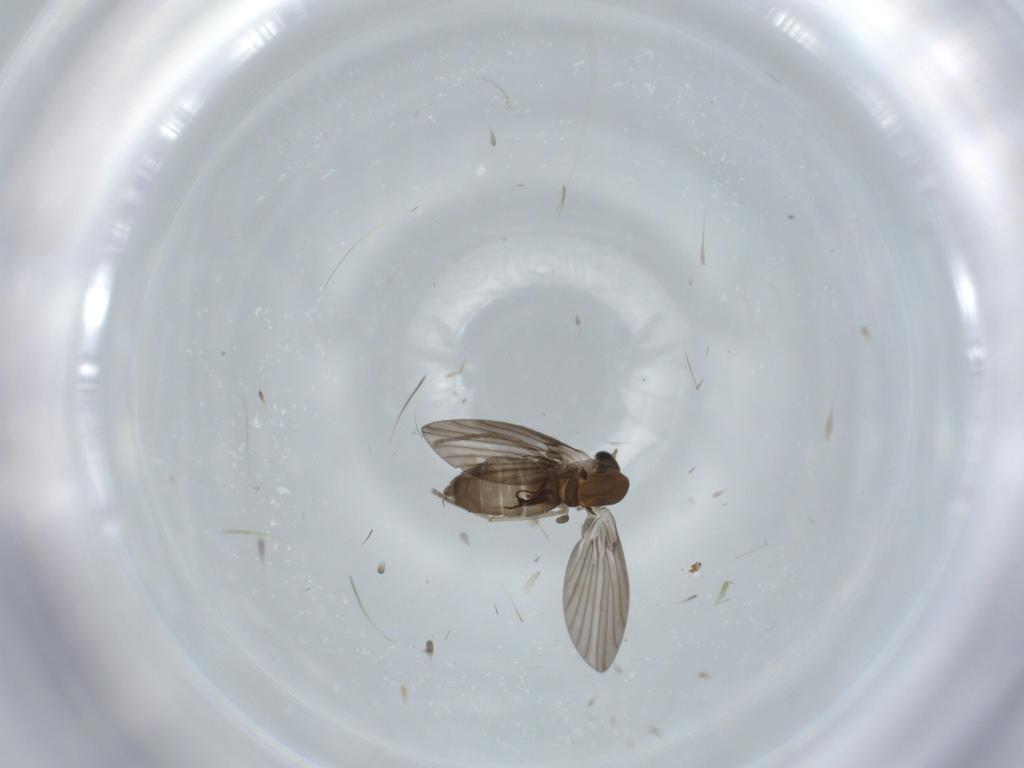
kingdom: Animalia
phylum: Arthropoda
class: Insecta
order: Diptera
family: Psychodidae
